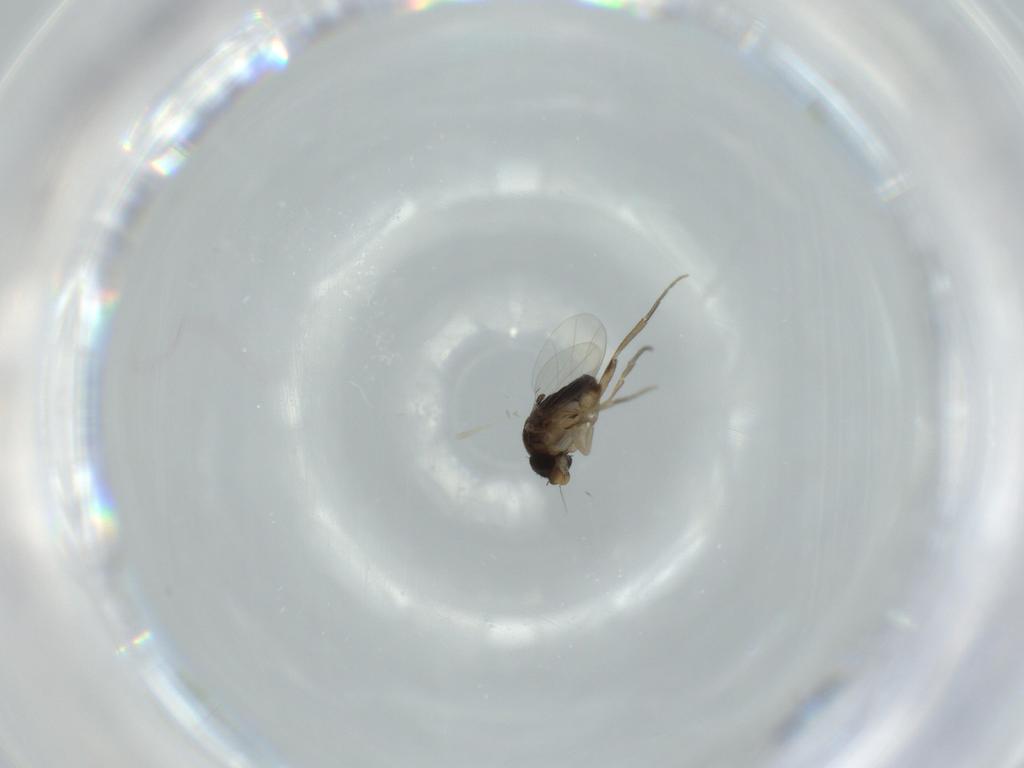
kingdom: Animalia
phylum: Arthropoda
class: Insecta
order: Diptera
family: Phoridae
